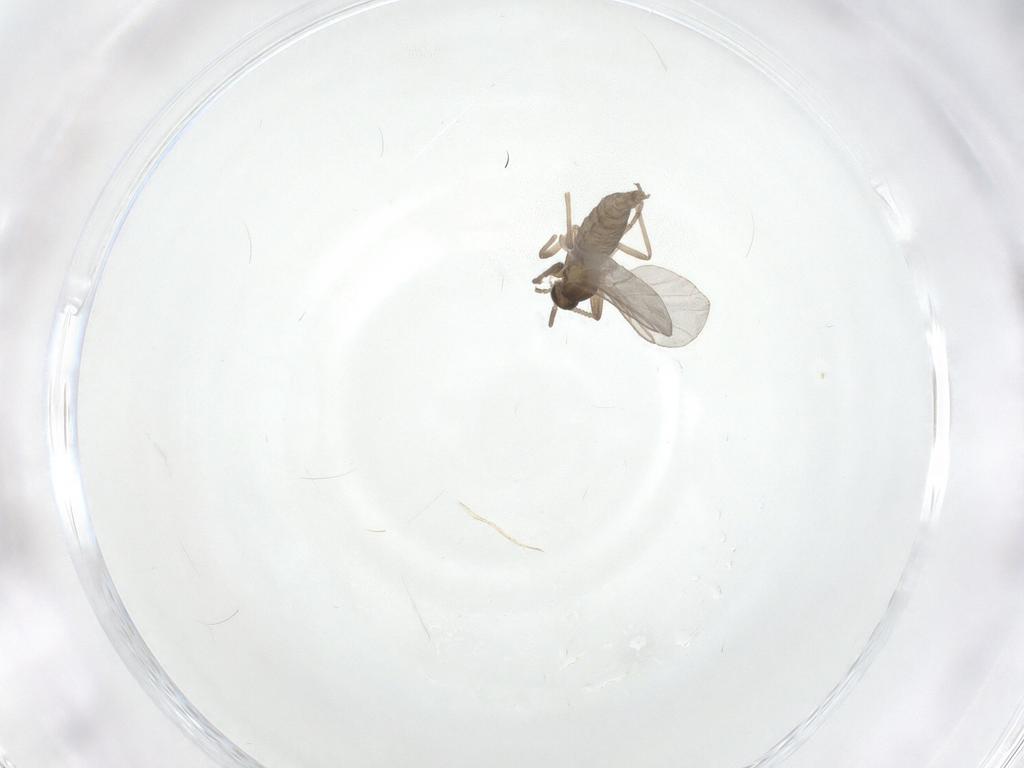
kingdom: Animalia
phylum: Arthropoda
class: Insecta
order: Diptera
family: Cecidomyiidae
